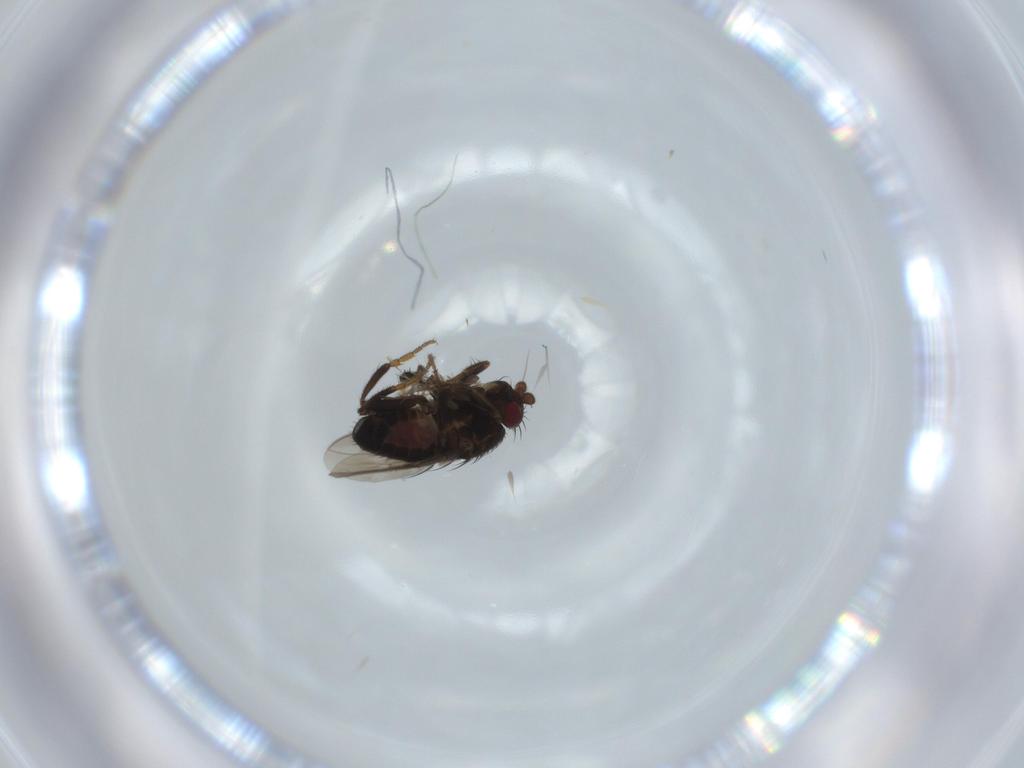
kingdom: Animalia
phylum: Arthropoda
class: Insecta
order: Diptera
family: Cecidomyiidae
